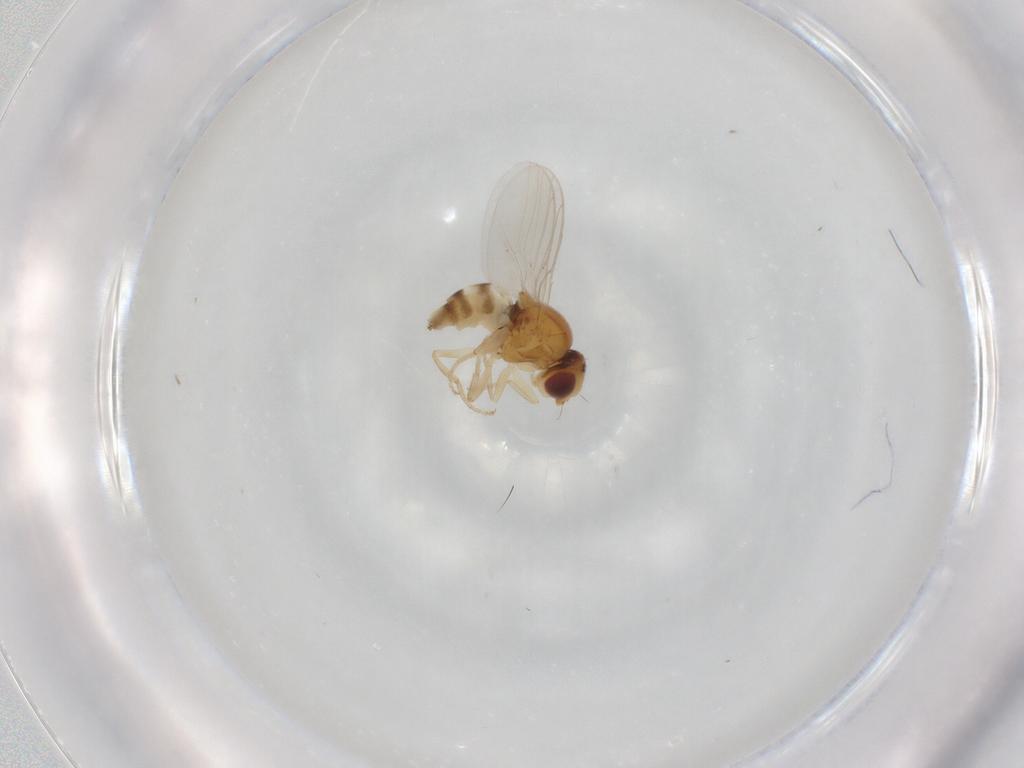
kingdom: Animalia
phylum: Arthropoda
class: Insecta
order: Diptera
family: Chloropidae
